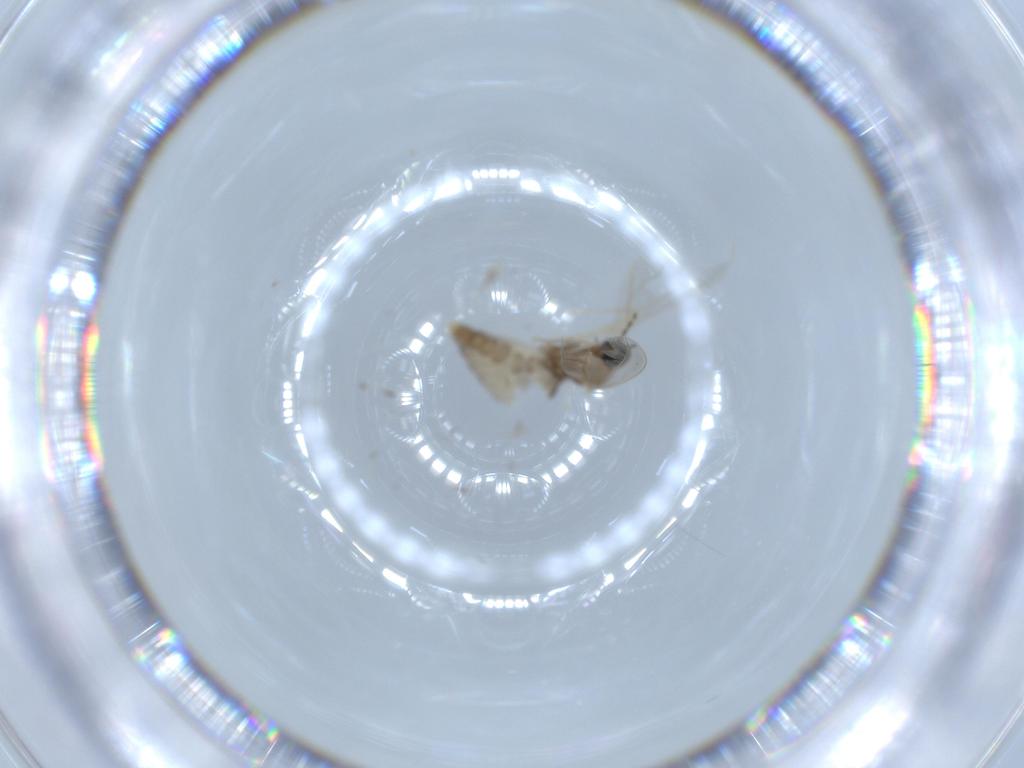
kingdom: Animalia
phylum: Arthropoda
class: Insecta
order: Diptera
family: Cecidomyiidae
